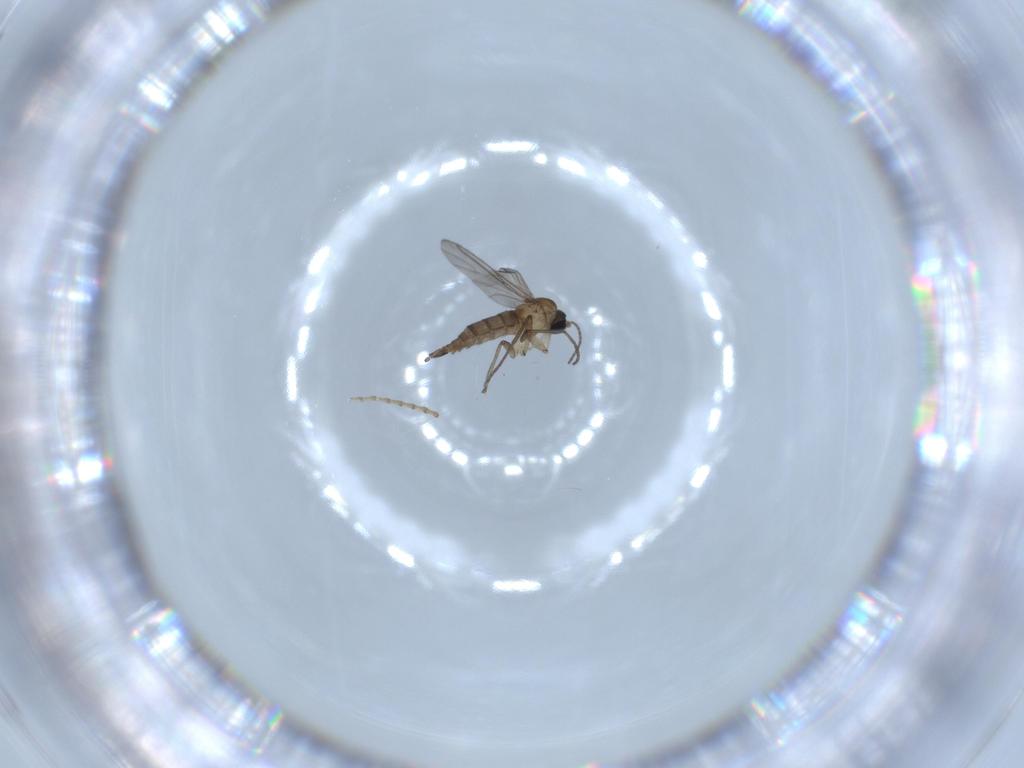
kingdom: Animalia
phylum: Arthropoda
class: Insecta
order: Diptera
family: Sciaridae
